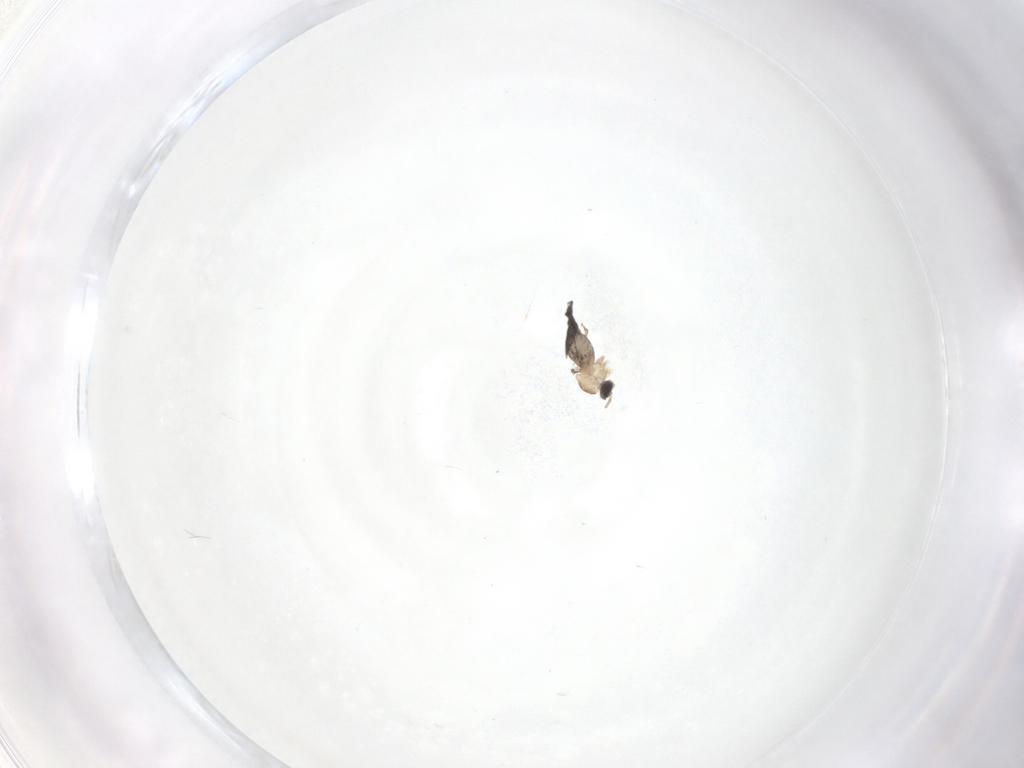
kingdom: Animalia
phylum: Arthropoda
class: Insecta
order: Diptera
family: Cecidomyiidae
